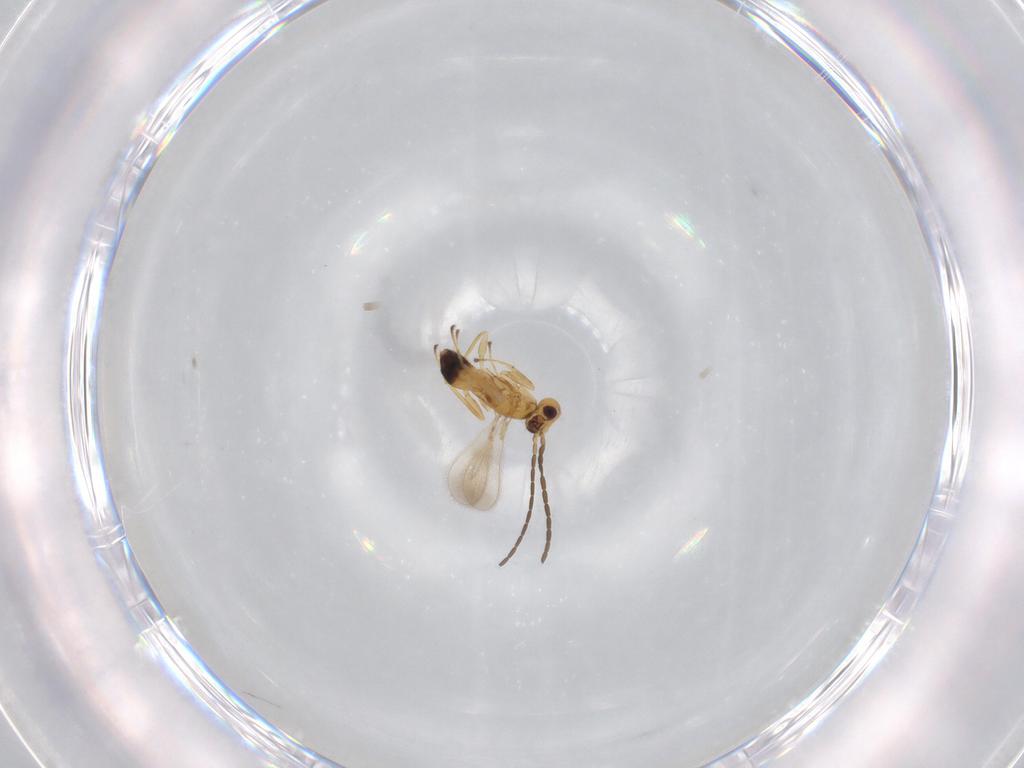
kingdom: Animalia
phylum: Arthropoda
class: Insecta
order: Hymenoptera
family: Mymaridae
